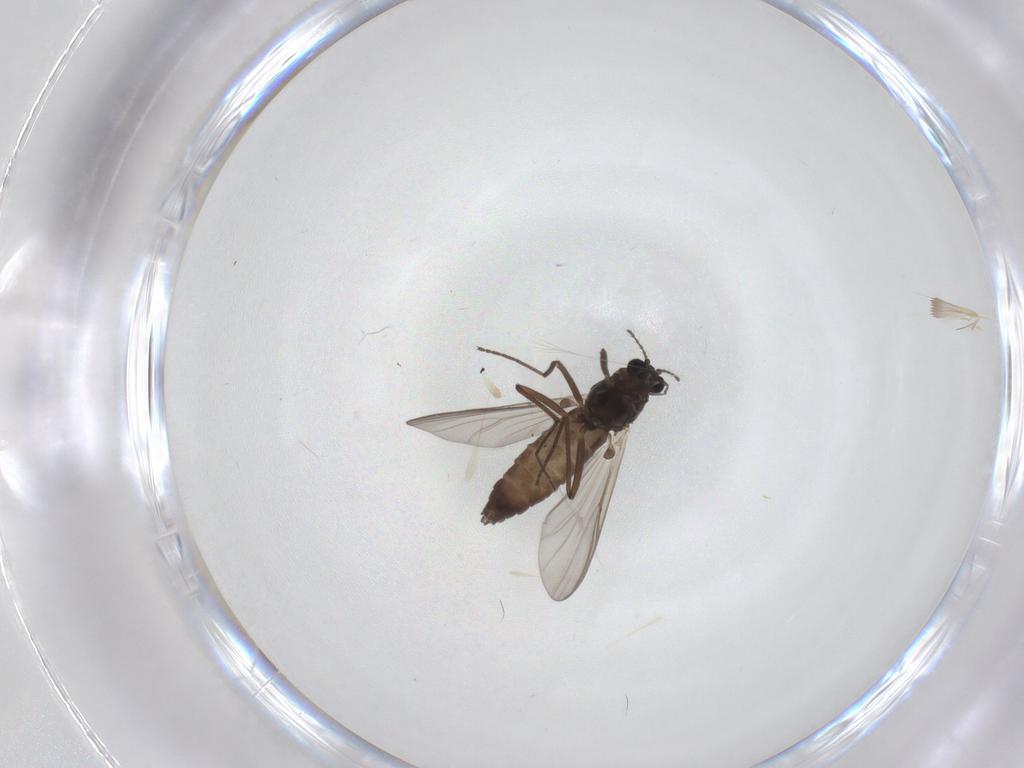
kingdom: Animalia
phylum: Arthropoda
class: Insecta
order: Diptera
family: Chironomidae
